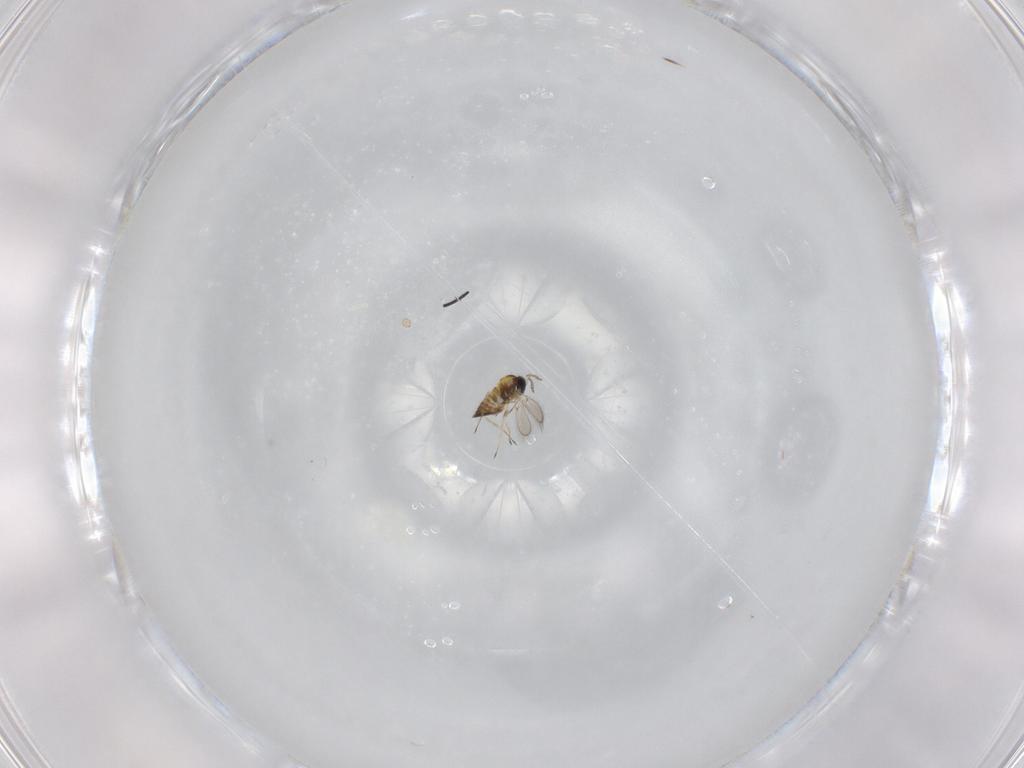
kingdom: Animalia
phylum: Arthropoda
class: Insecta
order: Hymenoptera
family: Trichogrammatidae
